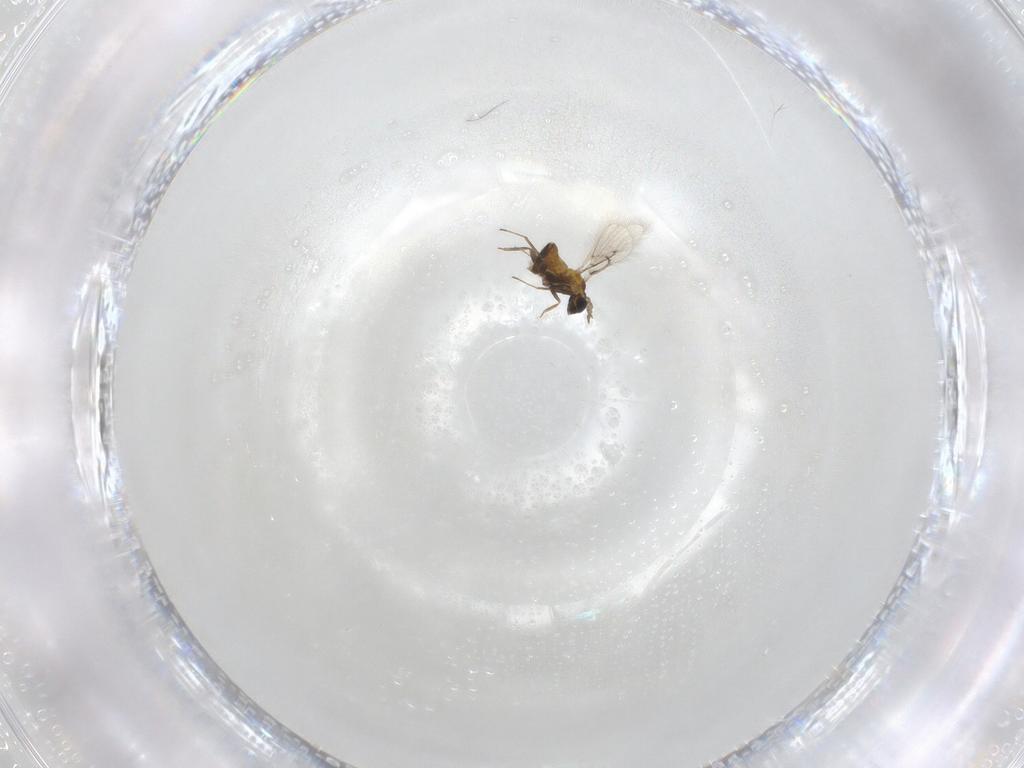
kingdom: Animalia
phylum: Arthropoda
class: Insecta
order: Hymenoptera
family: Trichogrammatidae
